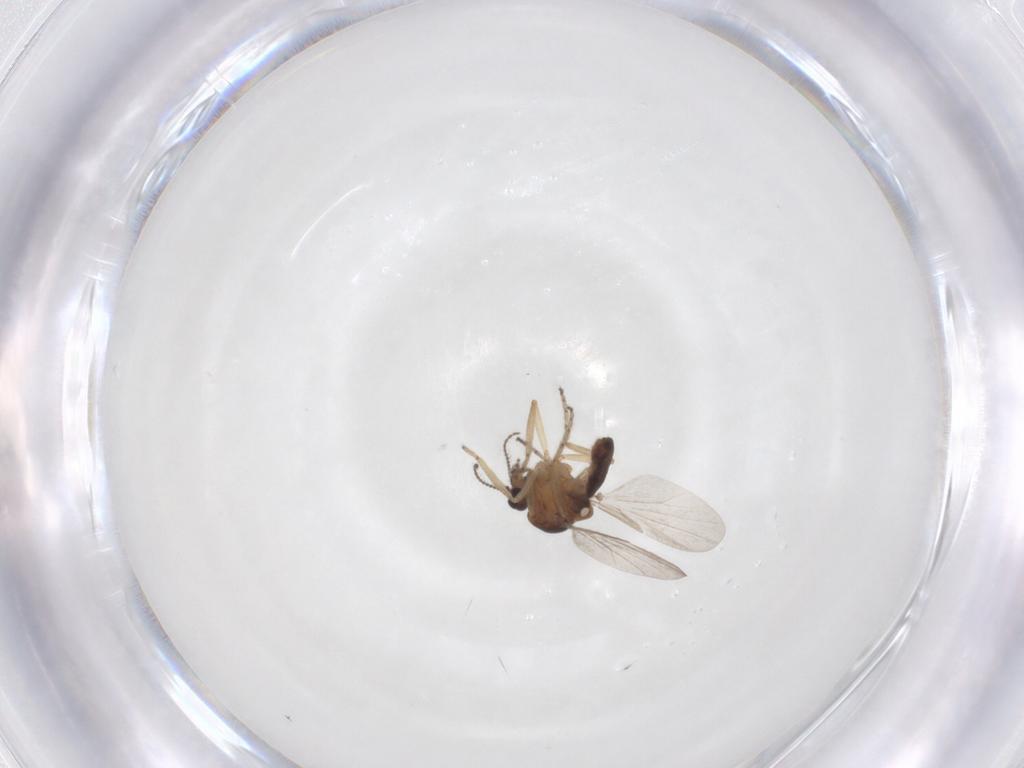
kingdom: Animalia
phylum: Arthropoda
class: Insecta
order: Diptera
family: Ceratopogonidae
